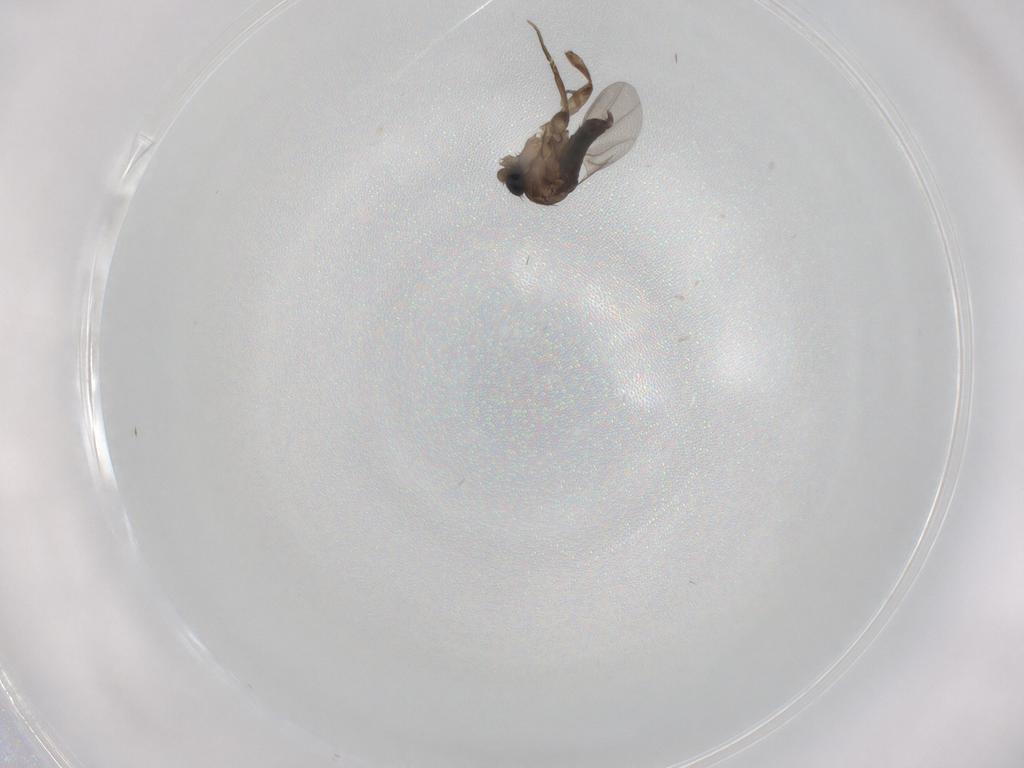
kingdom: Animalia
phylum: Arthropoda
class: Insecta
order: Diptera
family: Phoridae
